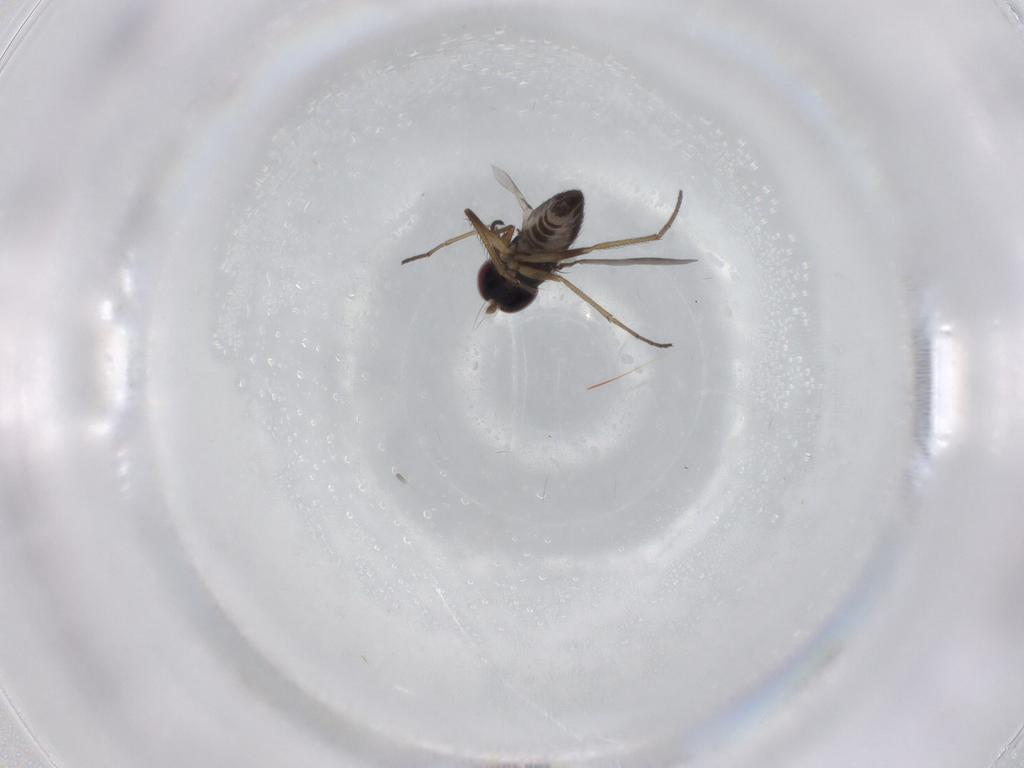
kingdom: Animalia
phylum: Arthropoda
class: Insecta
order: Diptera
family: Dolichopodidae
